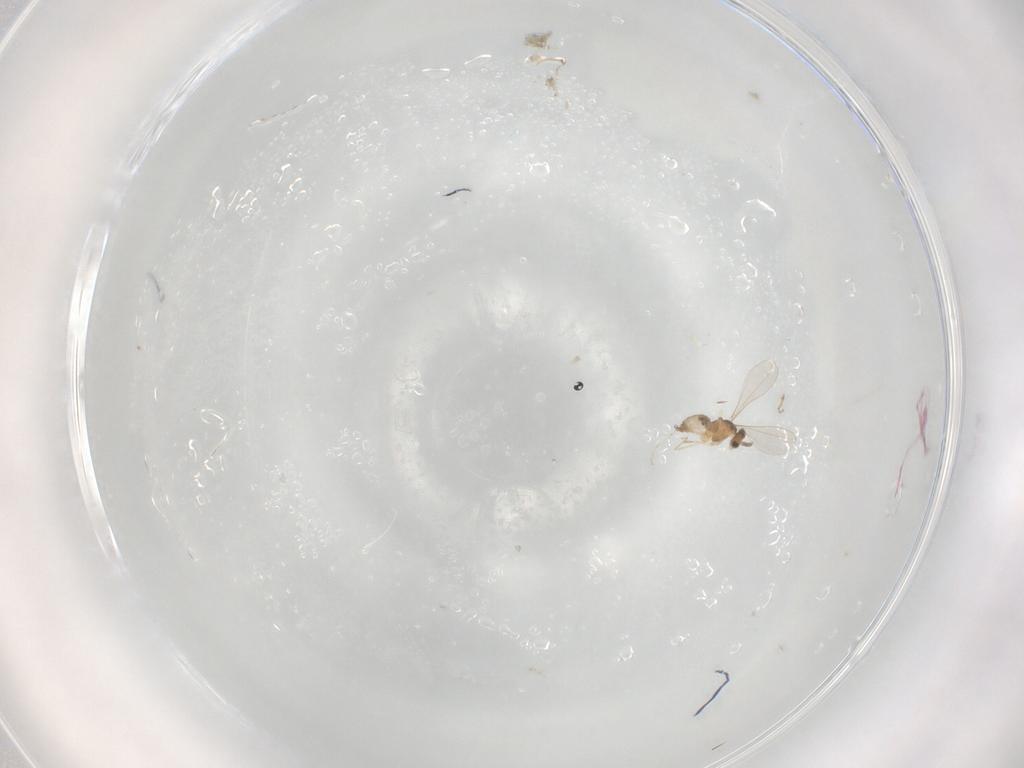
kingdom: Animalia
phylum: Arthropoda
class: Insecta
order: Diptera
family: Cecidomyiidae
